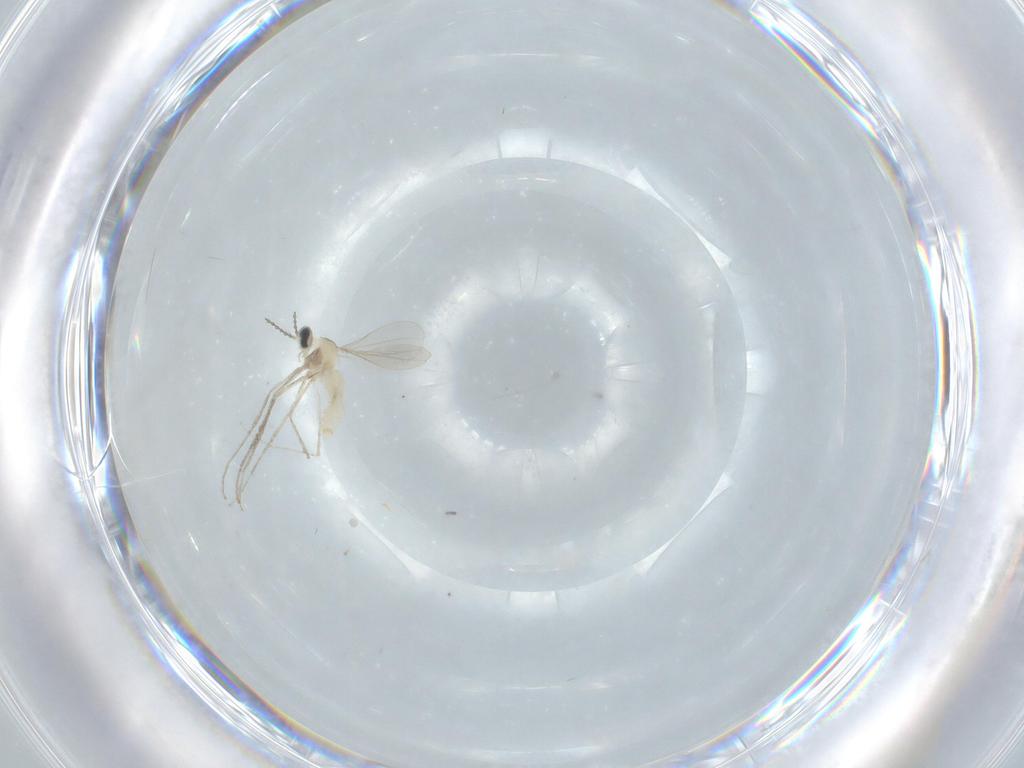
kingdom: Animalia
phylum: Arthropoda
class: Insecta
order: Diptera
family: Cecidomyiidae
